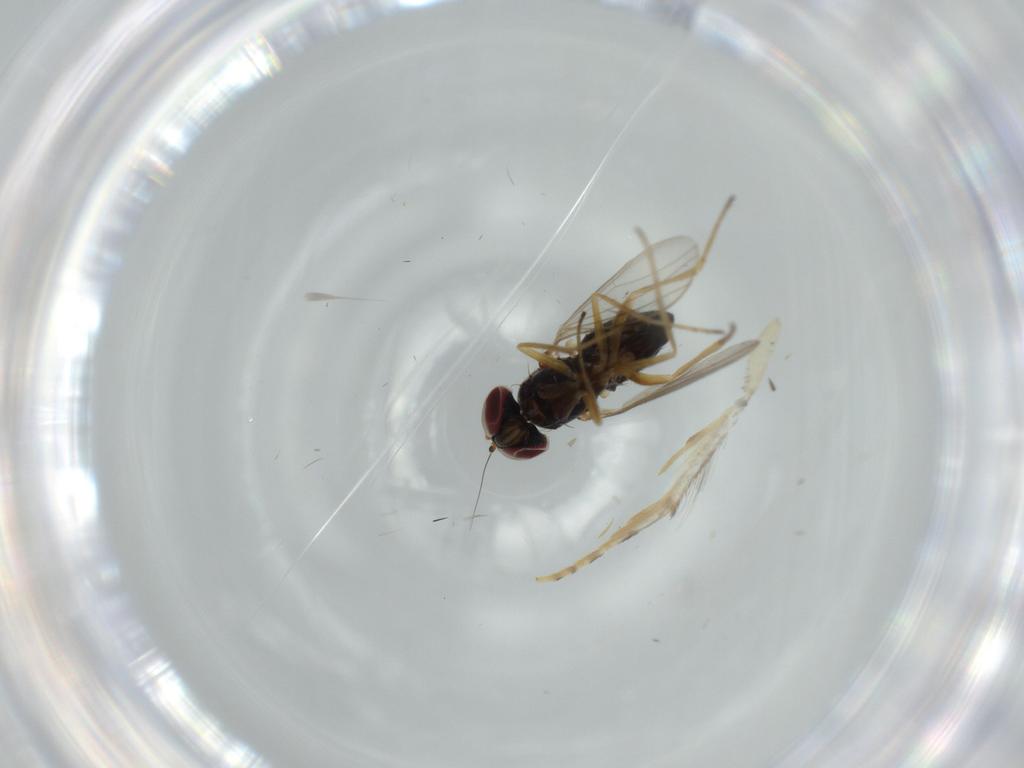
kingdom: Animalia
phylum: Arthropoda
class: Insecta
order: Diptera
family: Dolichopodidae
